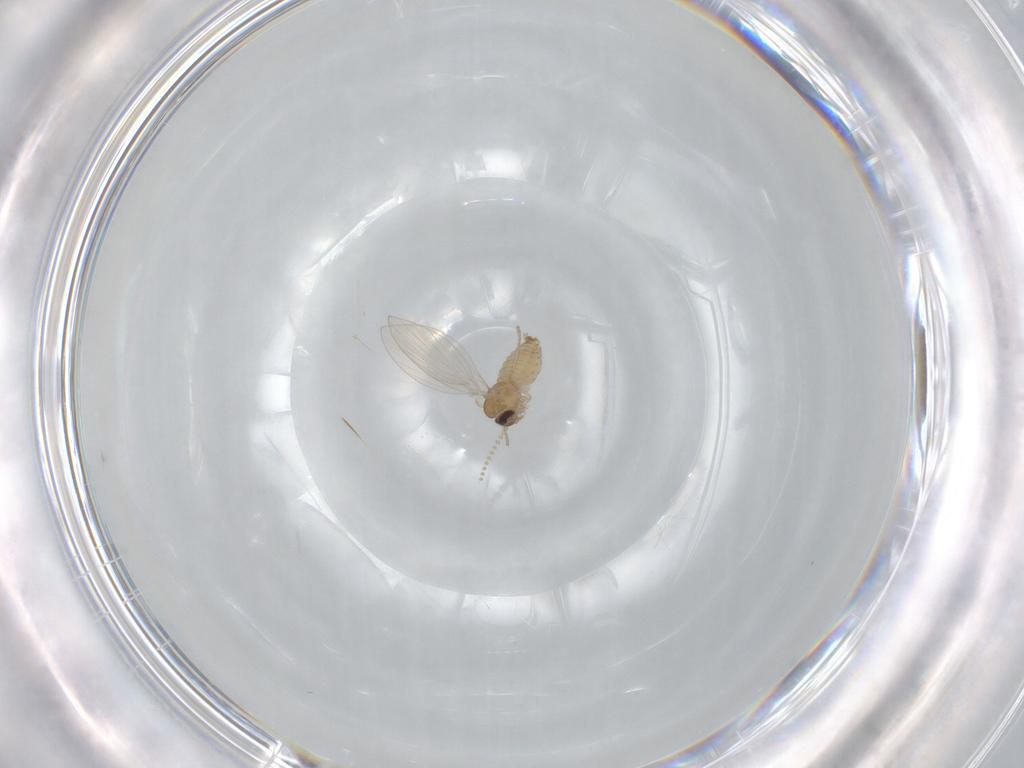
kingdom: Animalia
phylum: Arthropoda
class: Insecta
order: Diptera
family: Psychodidae
